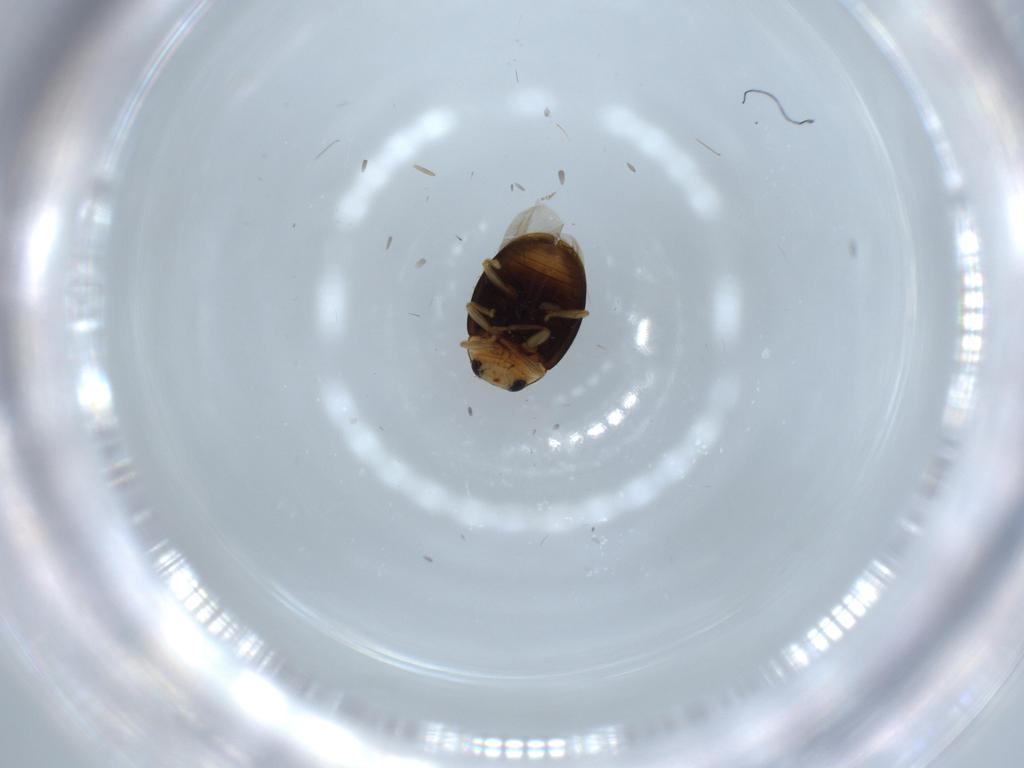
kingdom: Animalia
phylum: Arthropoda
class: Insecta
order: Coleoptera
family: Coccinellidae
